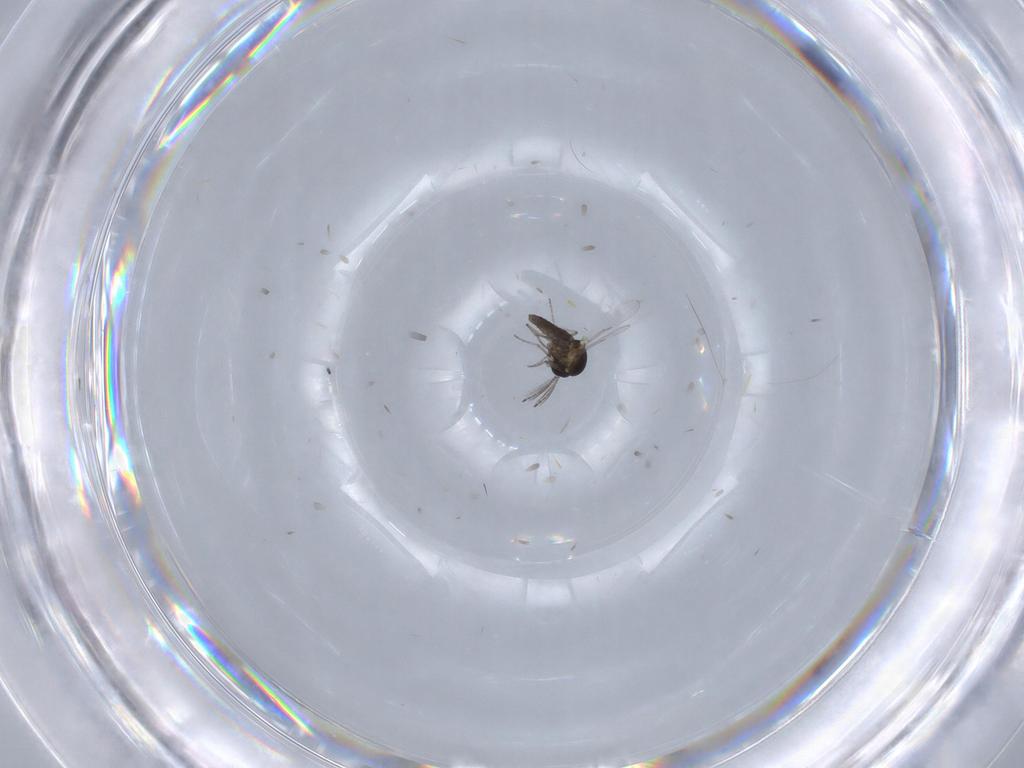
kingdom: Animalia
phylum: Arthropoda
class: Insecta
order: Diptera
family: Ceratopogonidae
